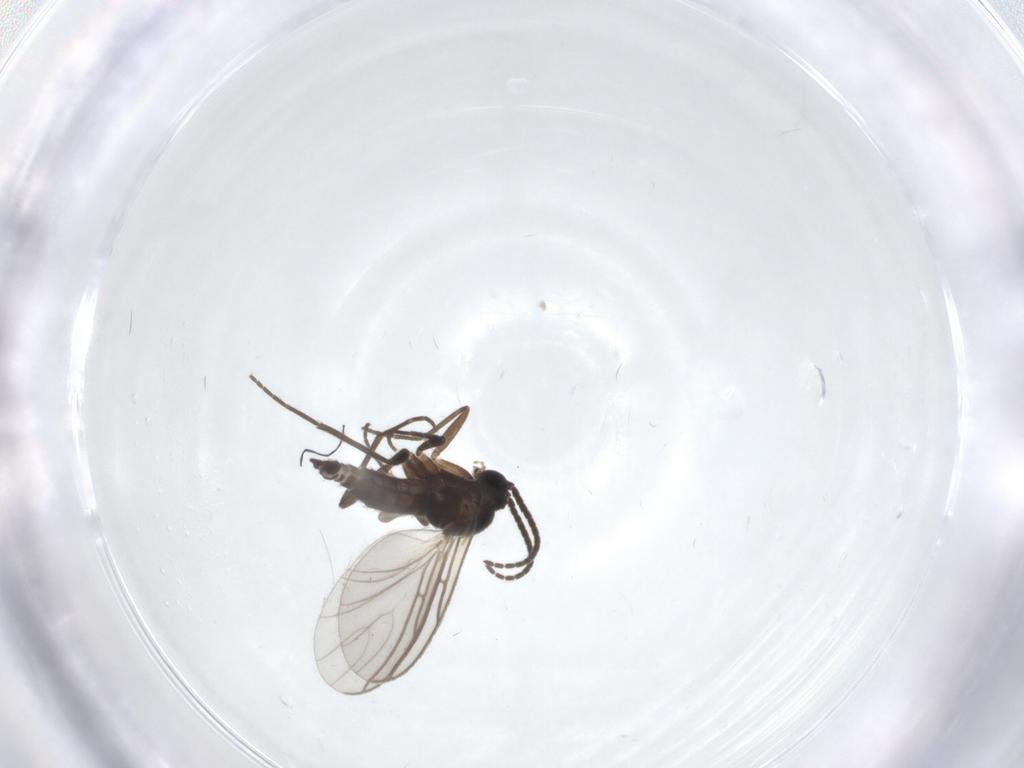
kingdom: Animalia
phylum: Arthropoda
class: Insecta
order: Diptera
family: Sciaridae
